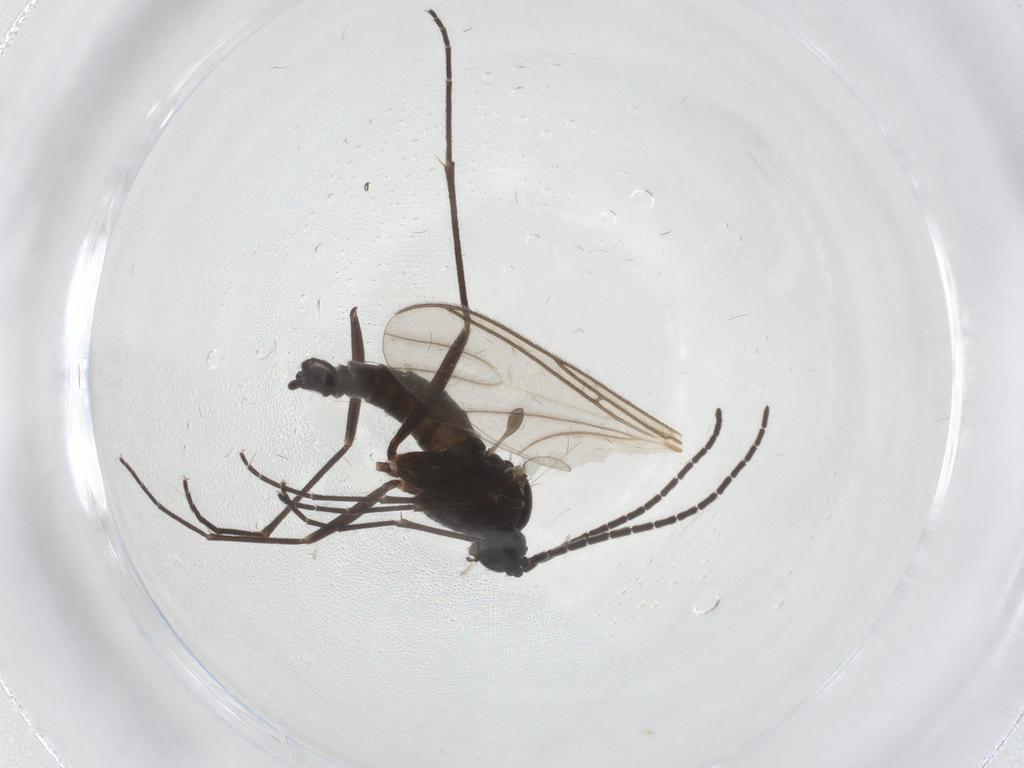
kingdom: Animalia
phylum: Arthropoda
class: Insecta
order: Diptera
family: Sciaridae
